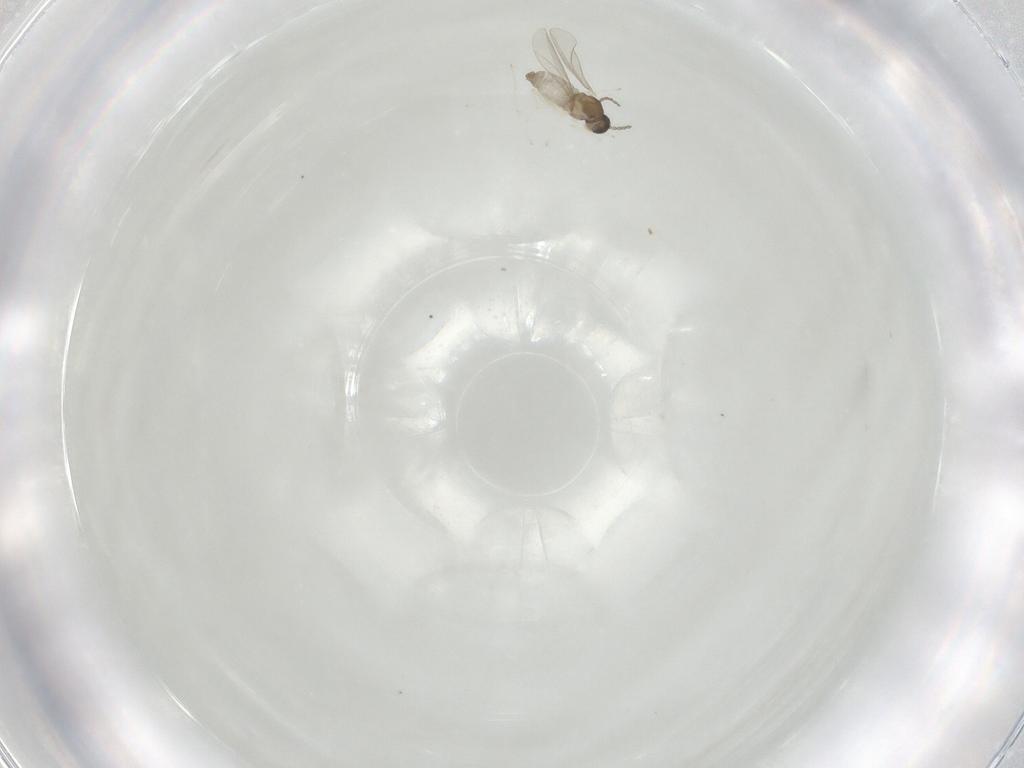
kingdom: Animalia
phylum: Arthropoda
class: Insecta
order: Diptera
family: Cecidomyiidae
